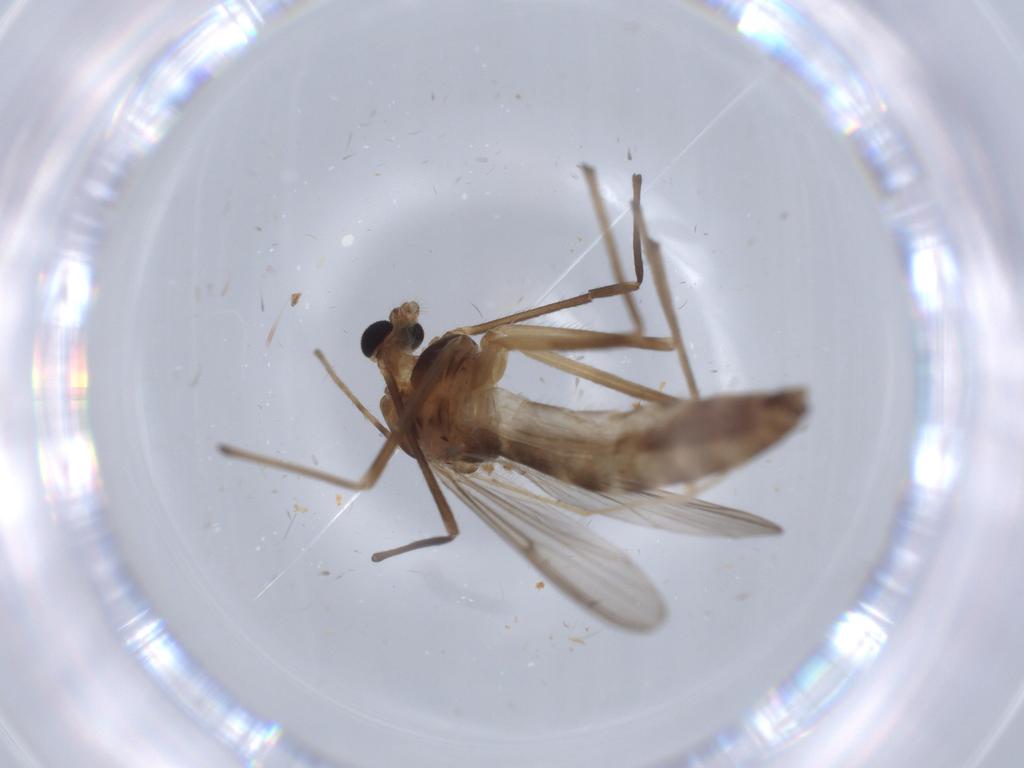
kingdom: Animalia
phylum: Arthropoda
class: Insecta
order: Diptera
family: Chironomidae
